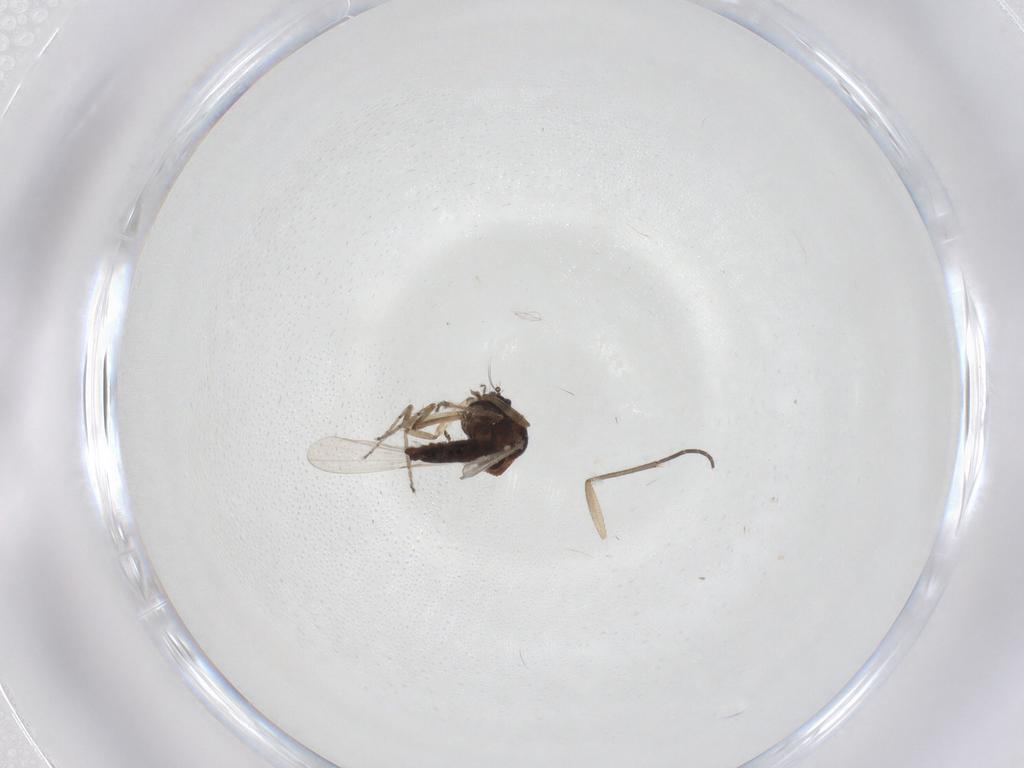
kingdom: Animalia
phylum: Arthropoda
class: Insecta
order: Diptera
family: Ceratopogonidae
